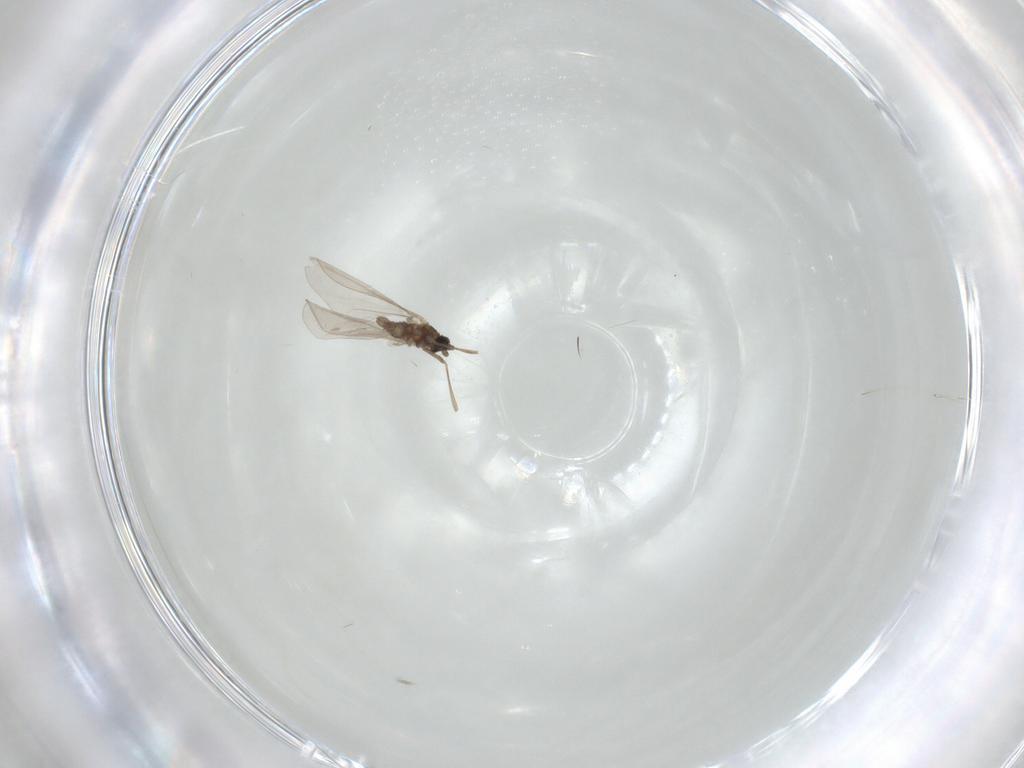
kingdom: Animalia
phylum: Arthropoda
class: Insecta
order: Diptera
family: Cecidomyiidae
